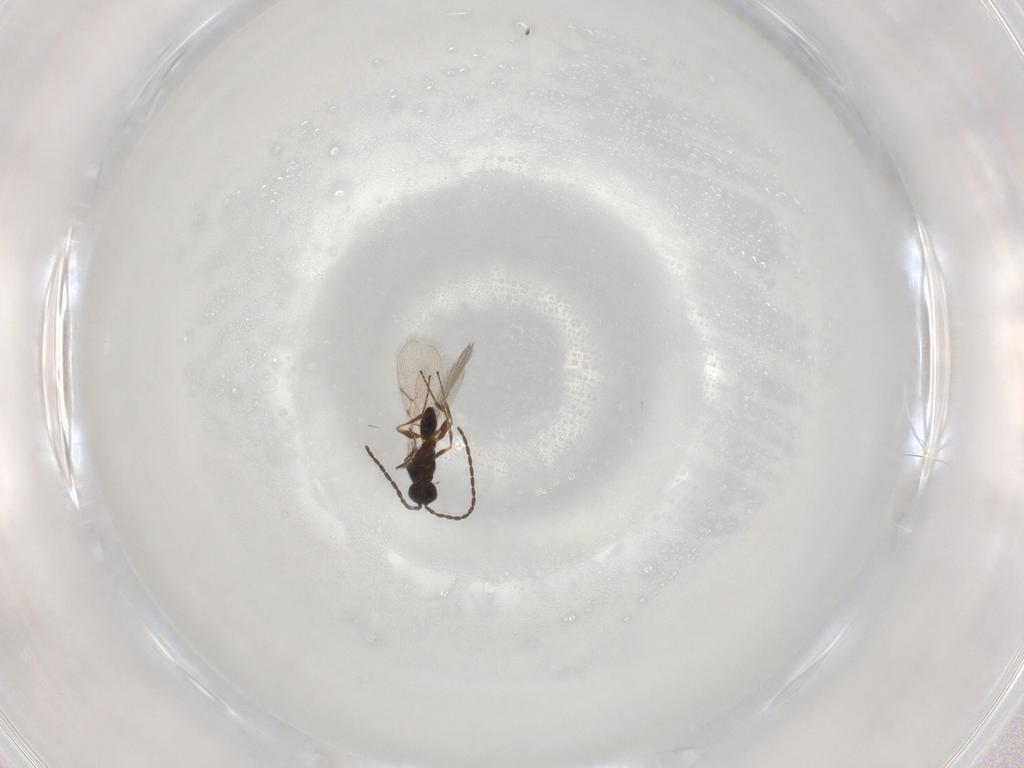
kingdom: Animalia
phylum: Arthropoda
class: Insecta
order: Hymenoptera
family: Figitidae
